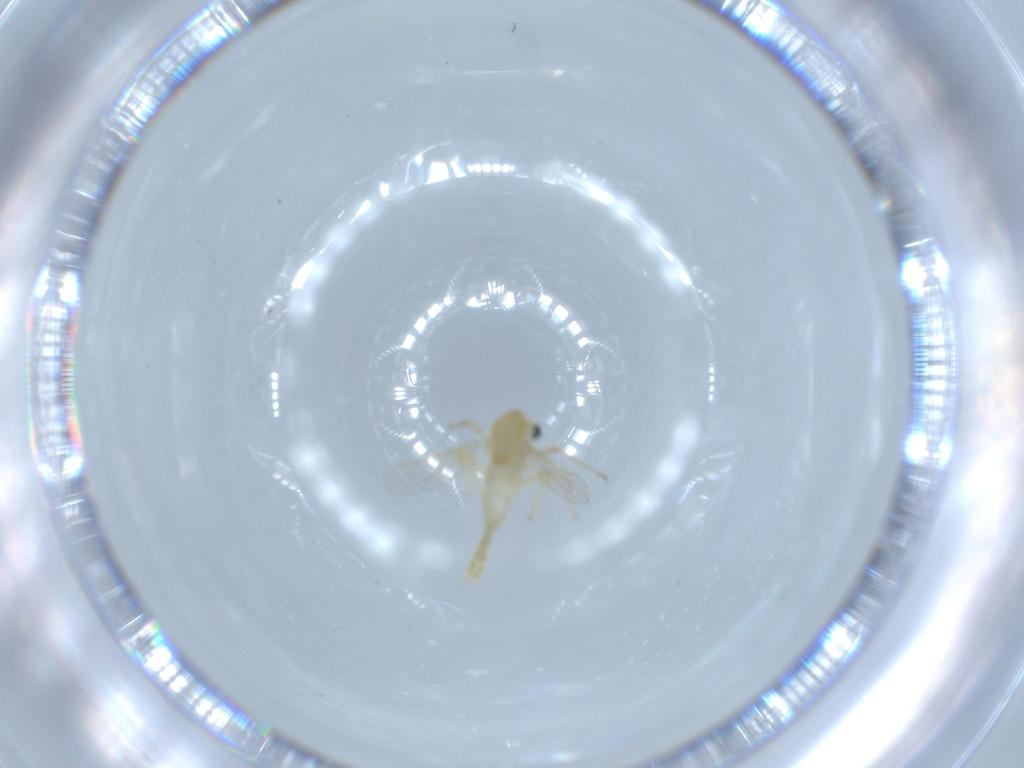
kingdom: Animalia
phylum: Arthropoda
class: Insecta
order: Diptera
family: Chironomidae
